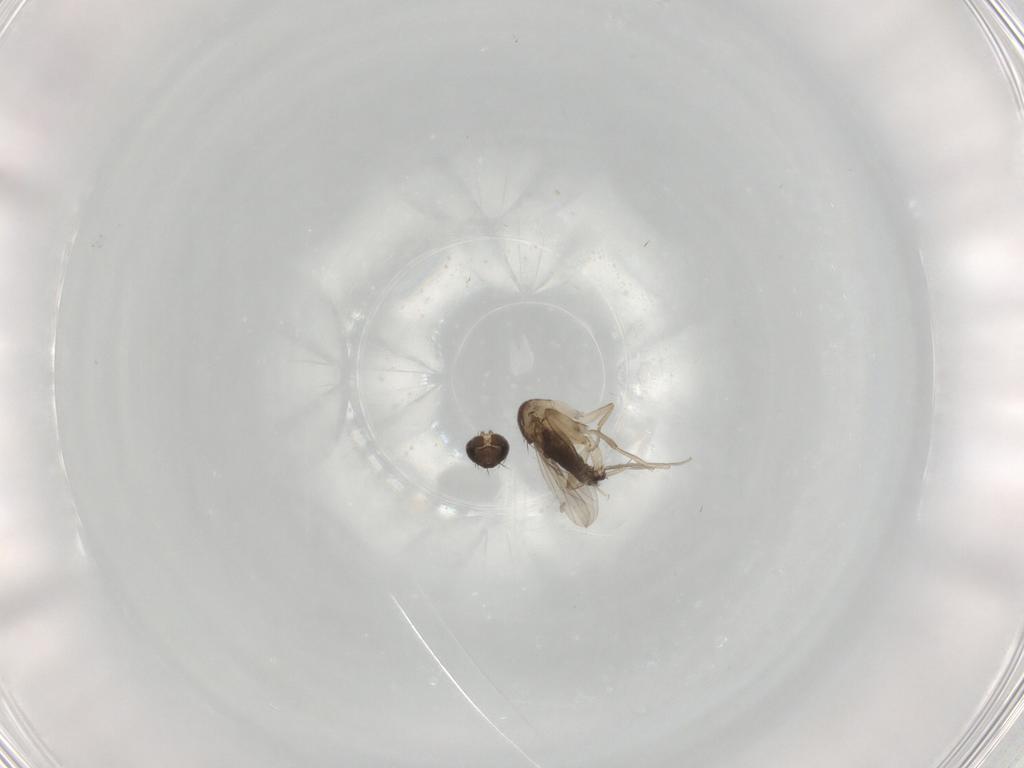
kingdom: Animalia
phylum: Arthropoda
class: Insecta
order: Diptera
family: Phoridae
